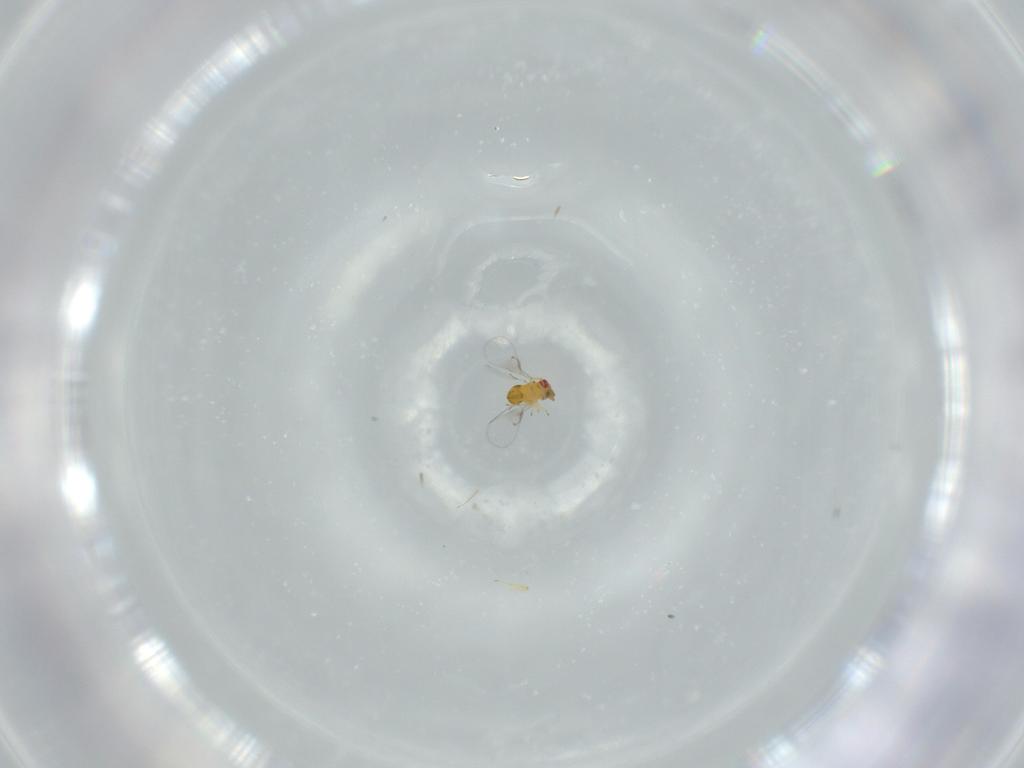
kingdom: Animalia
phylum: Arthropoda
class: Insecta
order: Hymenoptera
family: Trichogrammatidae
